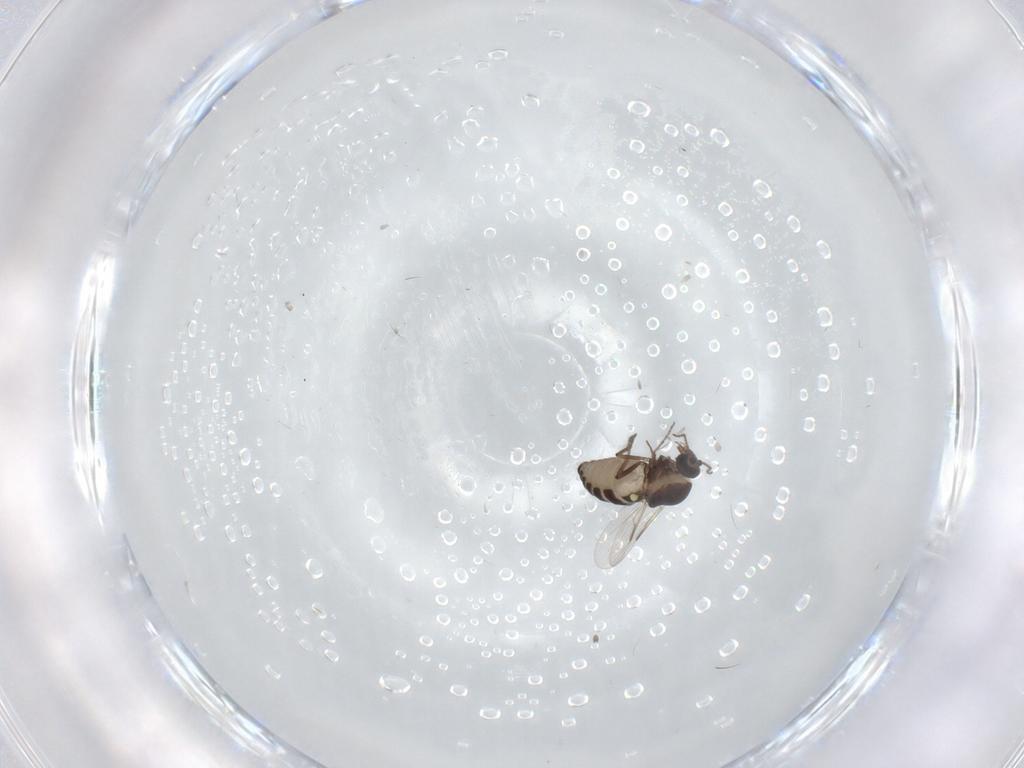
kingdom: Animalia
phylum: Arthropoda
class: Insecta
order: Diptera
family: Ceratopogonidae
